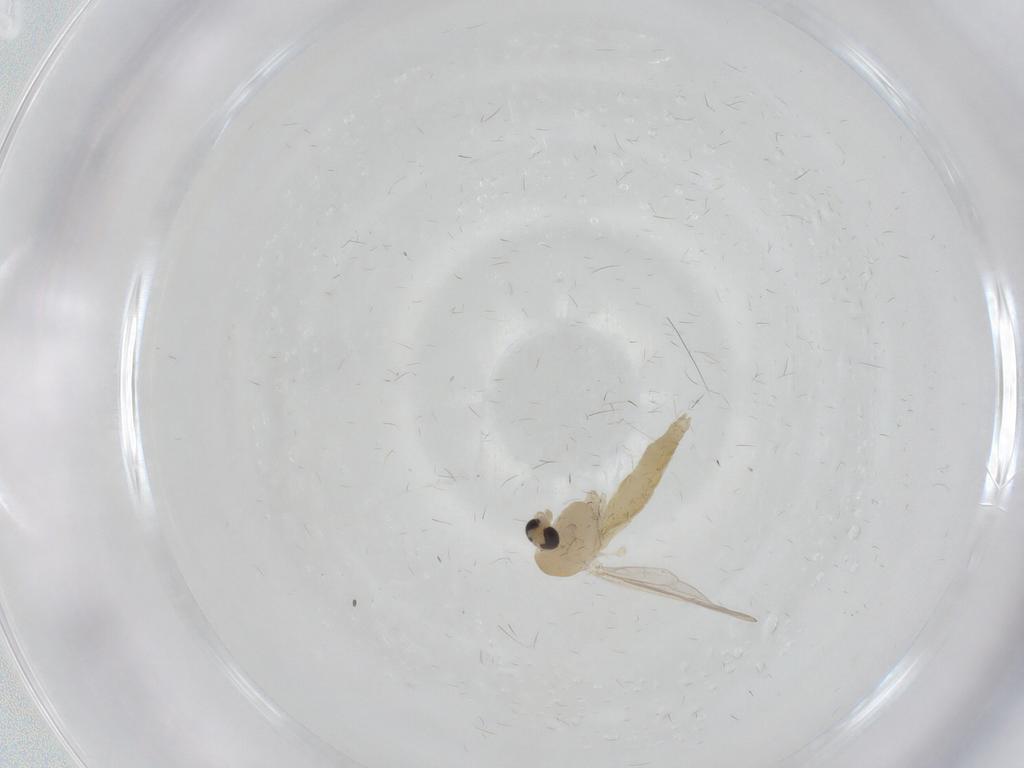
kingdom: Animalia
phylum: Arthropoda
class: Insecta
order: Diptera
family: Chironomidae
